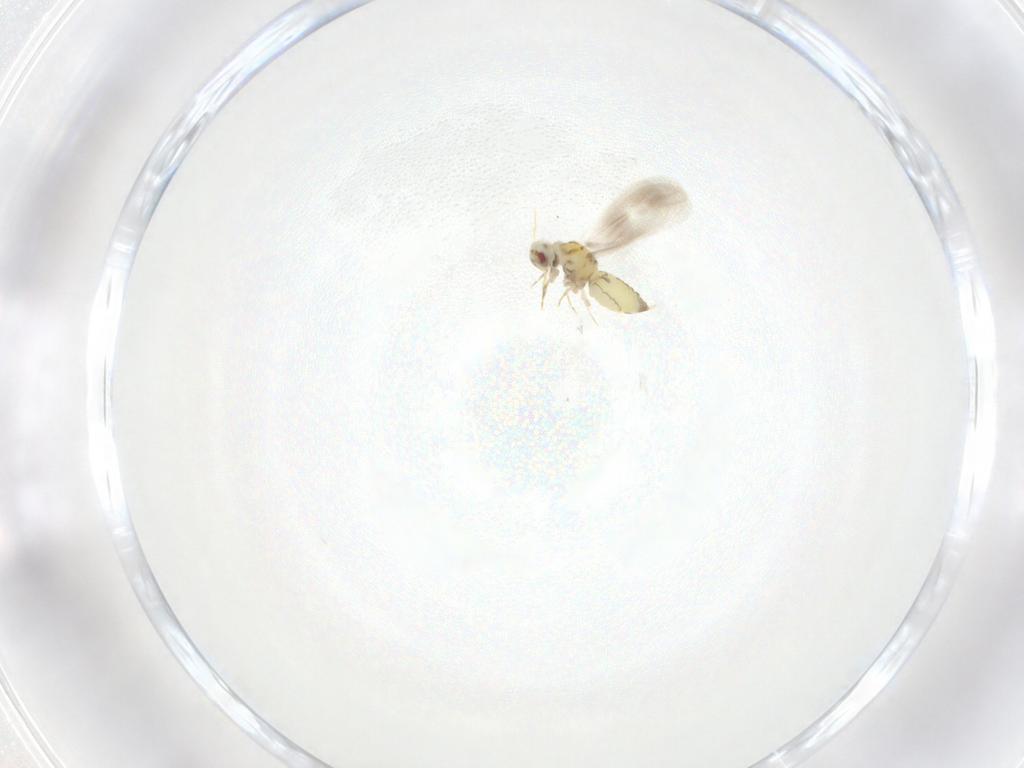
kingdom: Animalia
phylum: Arthropoda
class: Insecta
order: Hemiptera
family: Cicadellidae
